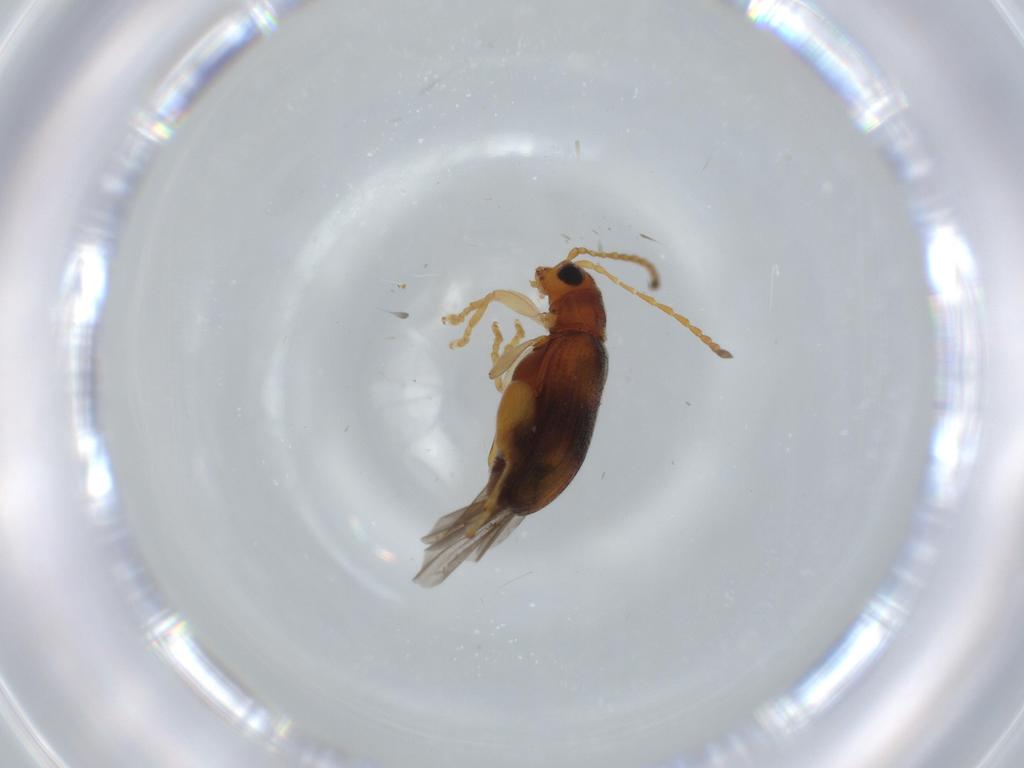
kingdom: Animalia
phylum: Arthropoda
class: Insecta
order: Coleoptera
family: Chrysomelidae
